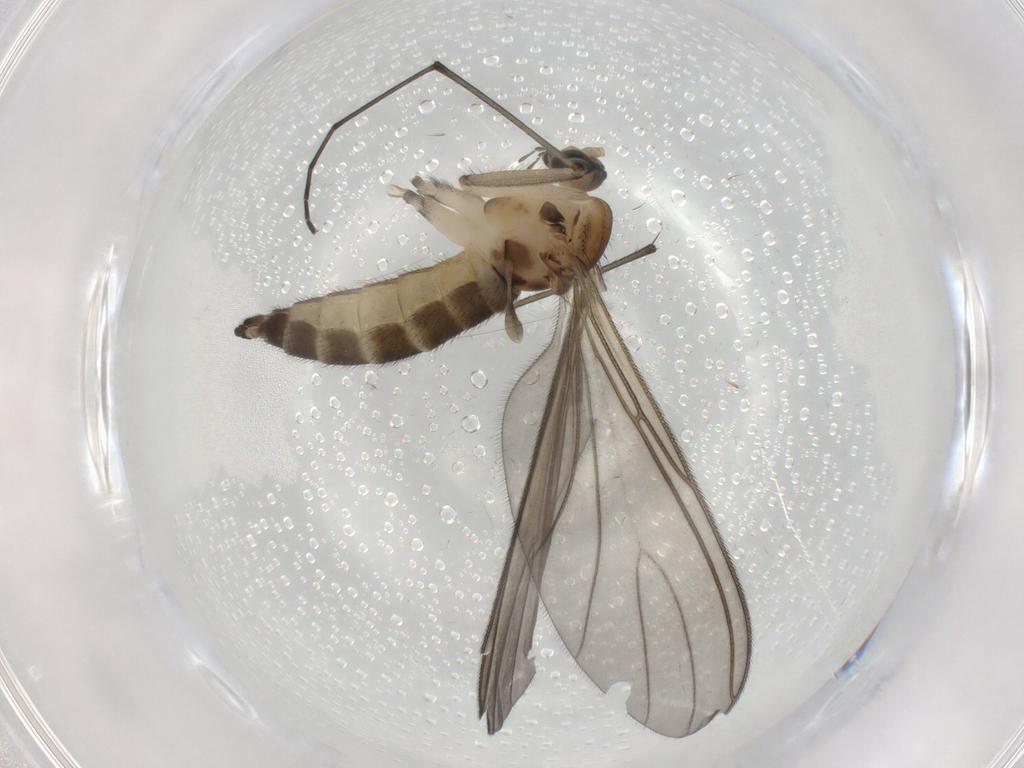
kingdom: Animalia
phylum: Arthropoda
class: Insecta
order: Diptera
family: Sciaridae
